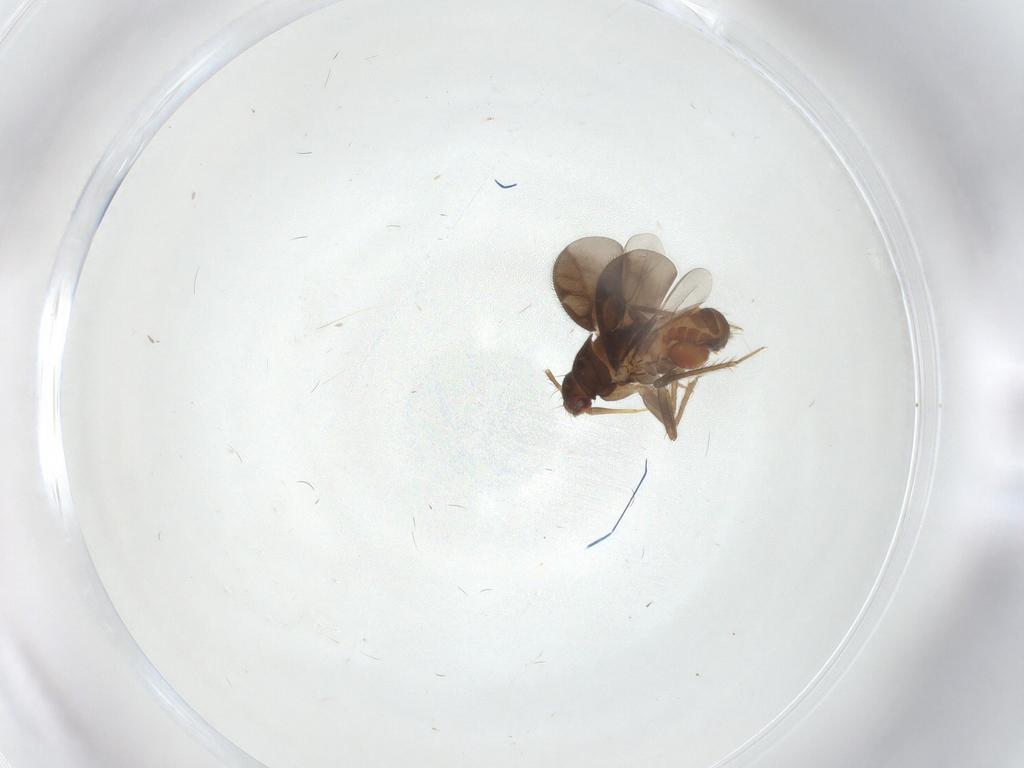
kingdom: Animalia
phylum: Arthropoda
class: Insecta
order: Hemiptera
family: Ceratocombidae
